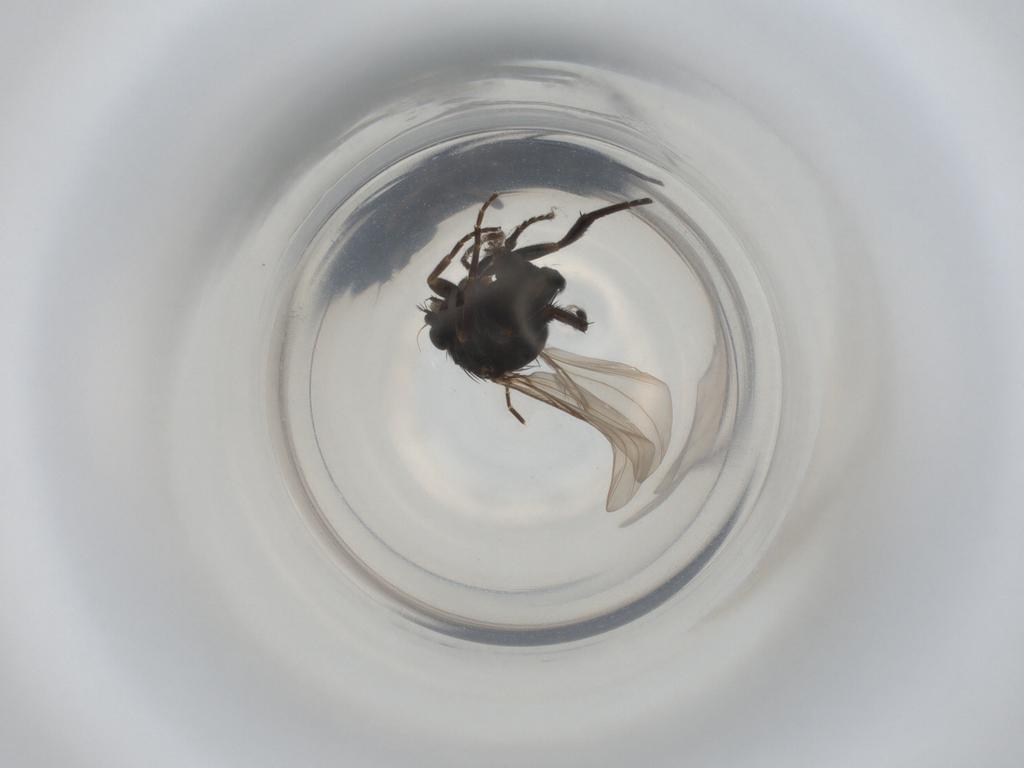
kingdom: Animalia
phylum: Arthropoda
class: Insecta
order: Diptera
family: Phoridae
